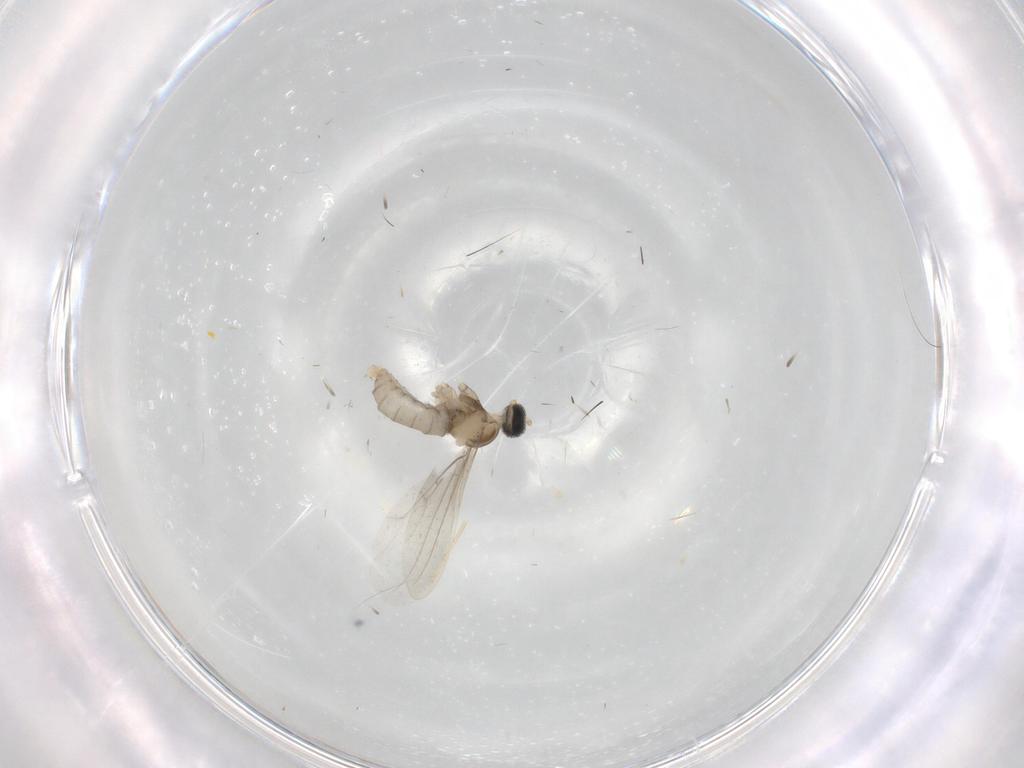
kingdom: Animalia
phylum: Arthropoda
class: Insecta
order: Diptera
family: Cecidomyiidae
